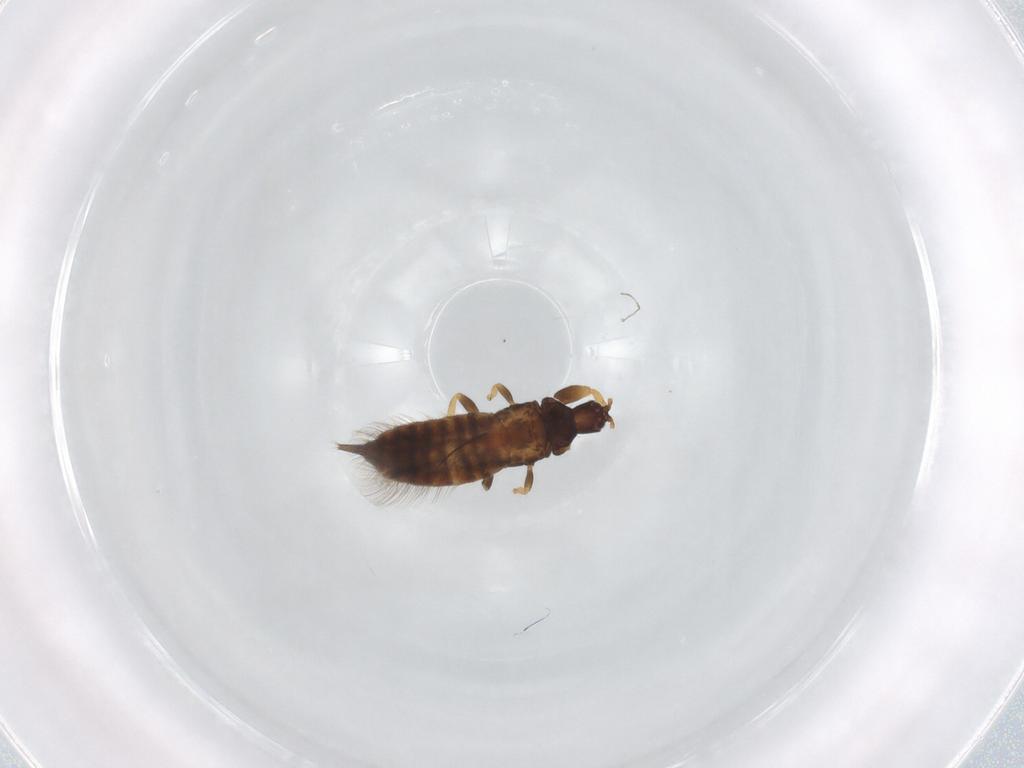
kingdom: Animalia
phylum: Arthropoda
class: Insecta
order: Thysanoptera
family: Phlaeothripidae
